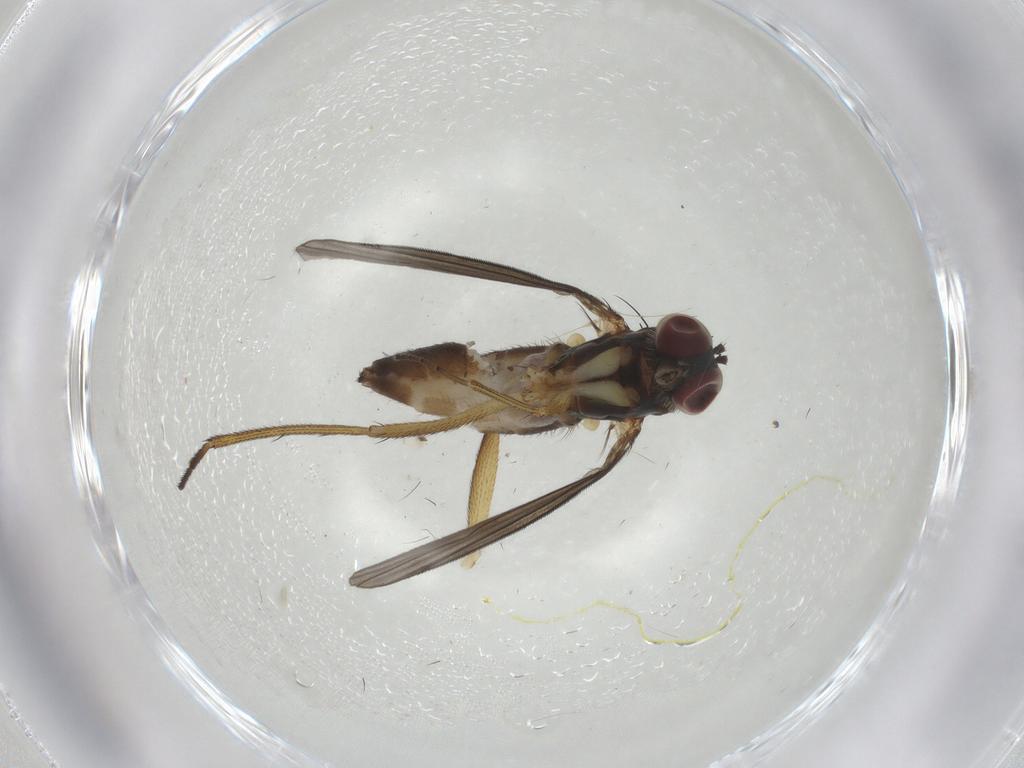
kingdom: Animalia
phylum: Arthropoda
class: Insecta
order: Diptera
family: Dolichopodidae
